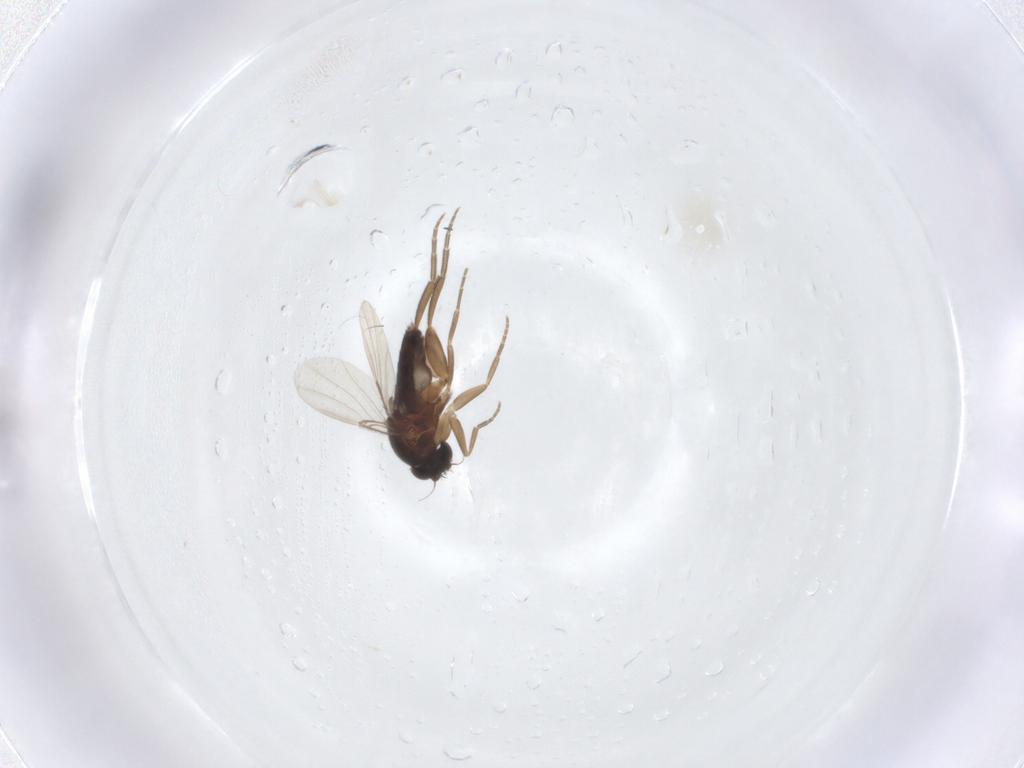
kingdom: Animalia
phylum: Arthropoda
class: Insecta
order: Diptera
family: Phoridae
